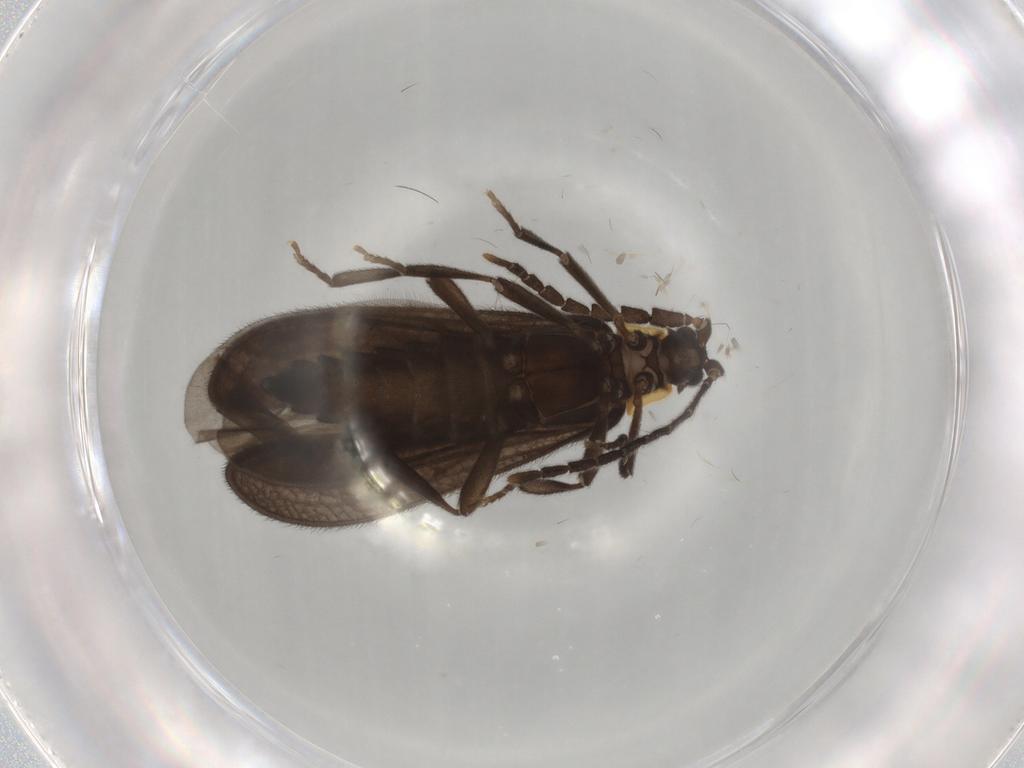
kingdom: Animalia
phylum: Arthropoda
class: Insecta
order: Coleoptera
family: Lycidae
